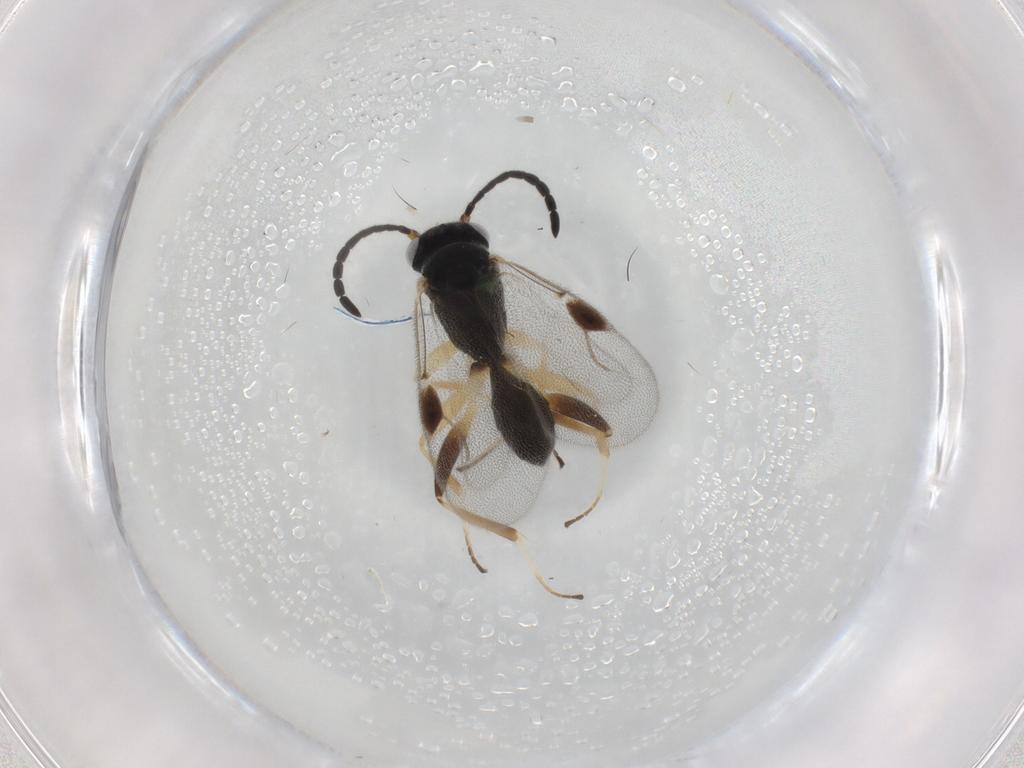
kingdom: Animalia
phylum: Arthropoda
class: Insecta
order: Hymenoptera
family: Dryinidae
